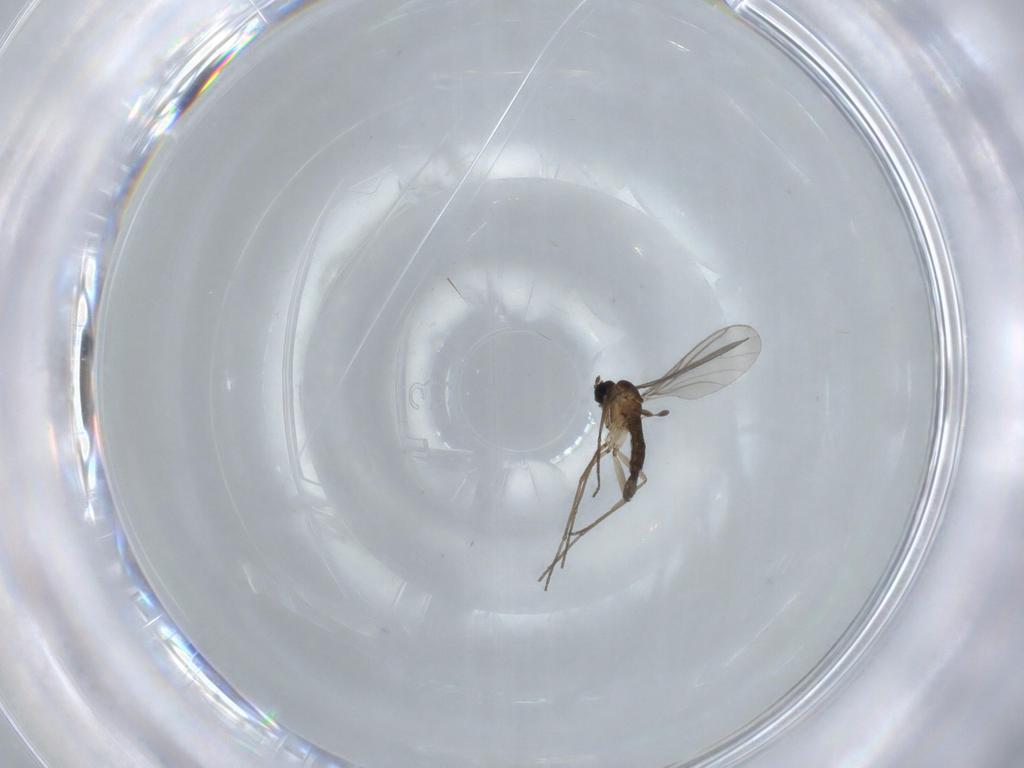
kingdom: Animalia
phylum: Arthropoda
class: Insecta
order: Diptera
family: Sciaridae
